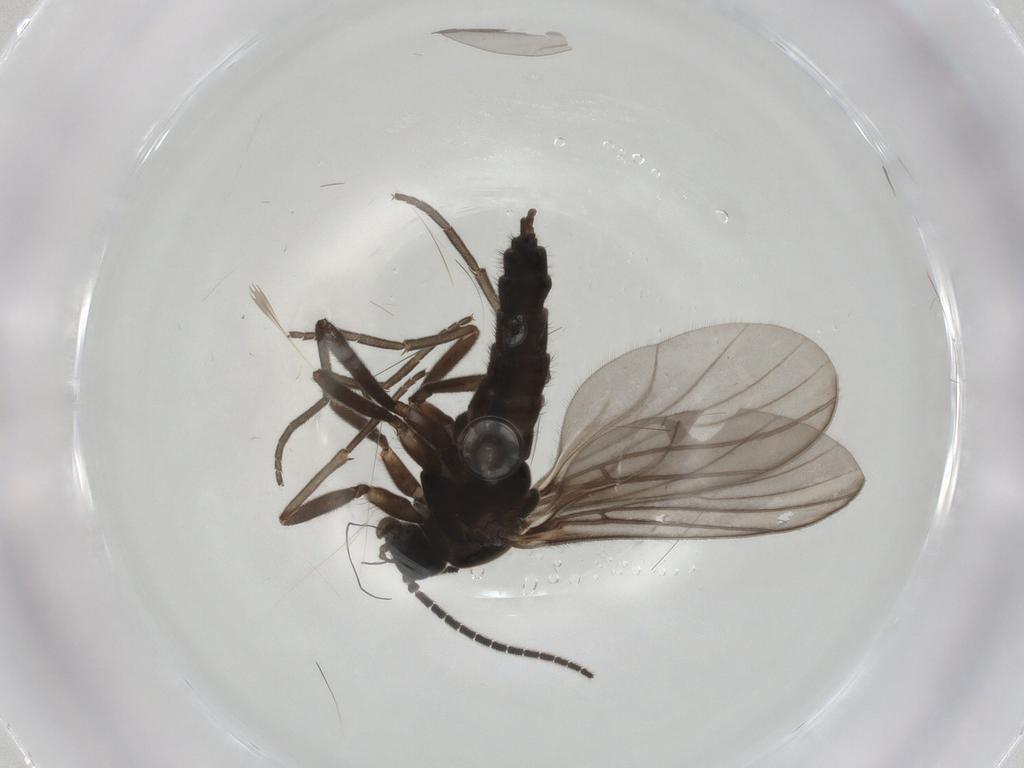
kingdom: Animalia
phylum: Arthropoda
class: Insecta
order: Diptera
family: Sciaridae
